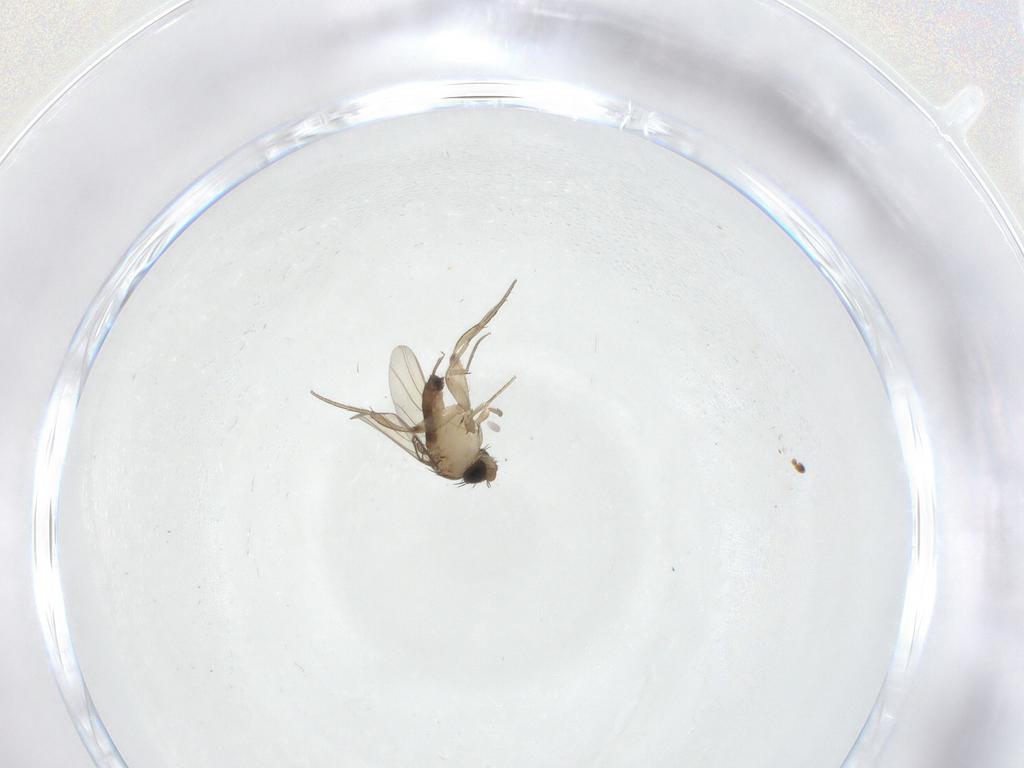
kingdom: Animalia
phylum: Arthropoda
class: Insecta
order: Diptera
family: Phoridae
